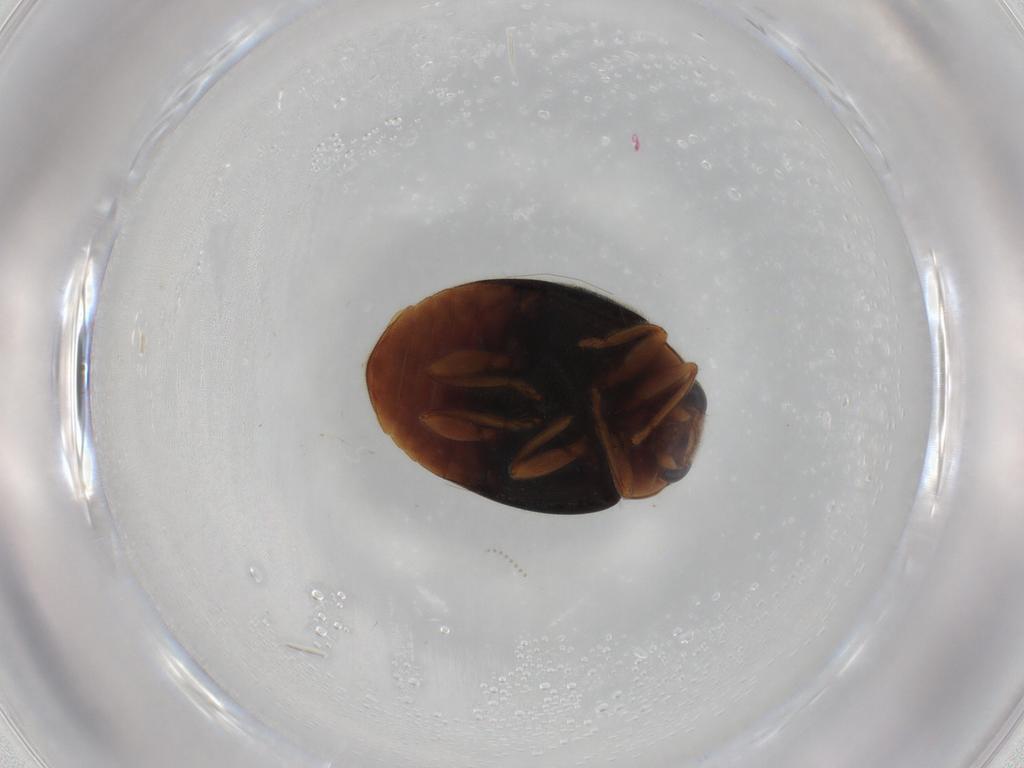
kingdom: Animalia
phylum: Arthropoda
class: Insecta
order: Coleoptera
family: Coccinellidae
